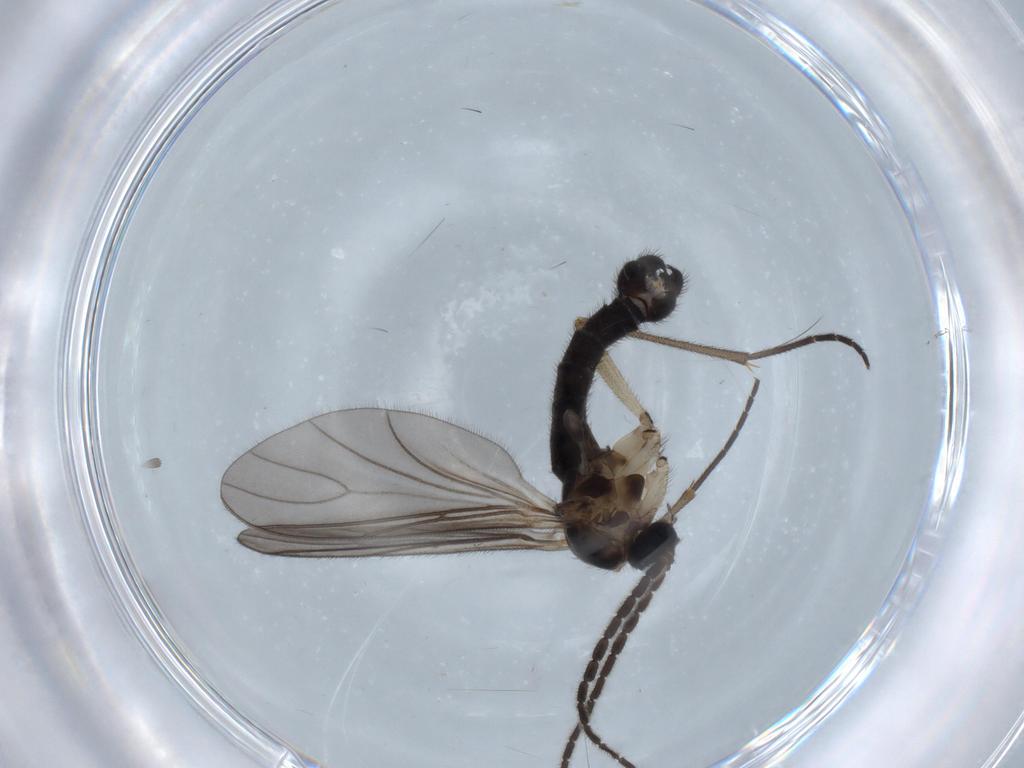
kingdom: Animalia
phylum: Arthropoda
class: Insecta
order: Diptera
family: Sciaridae
